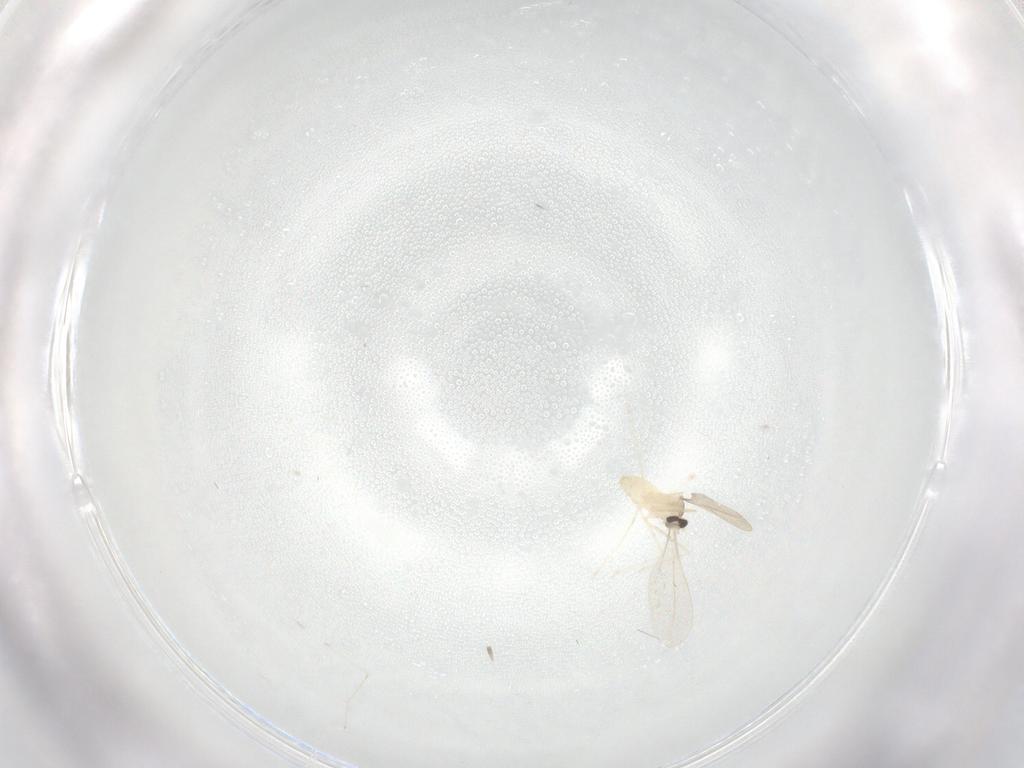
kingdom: Animalia
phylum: Arthropoda
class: Insecta
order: Diptera
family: Cecidomyiidae
